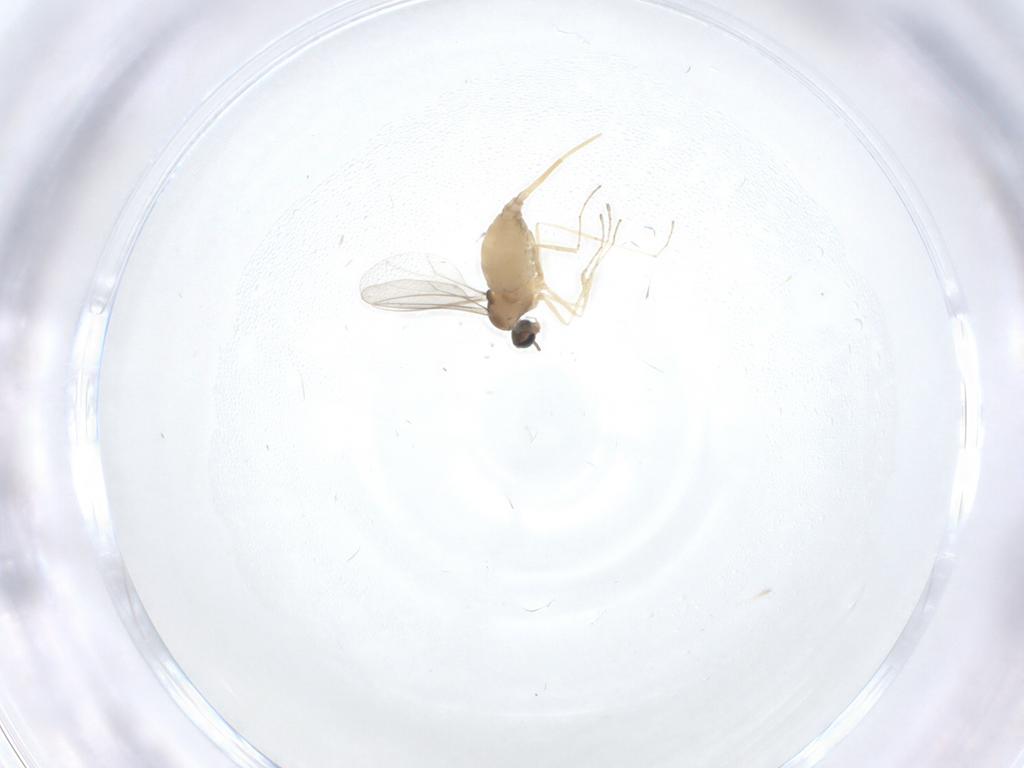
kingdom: Animalia
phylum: Arthropoda
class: Insecta
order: Diptera
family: Cecidomyiidae
